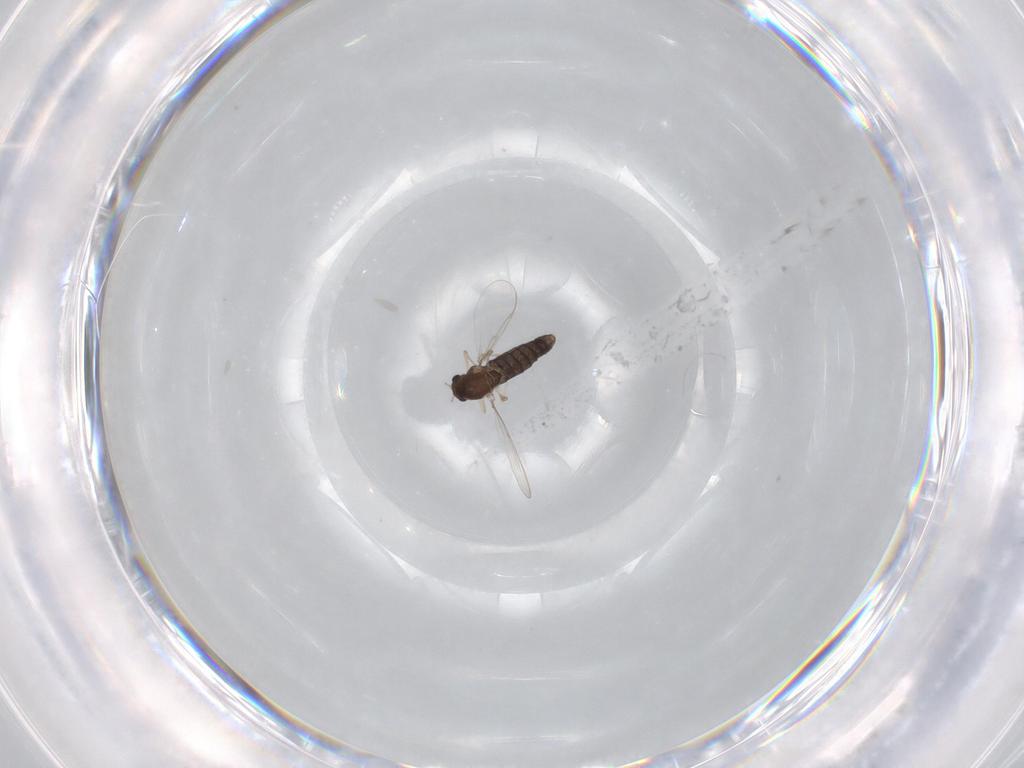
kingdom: Animalia
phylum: Arthropoda
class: Insecta
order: Diptera
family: Chironomidae
